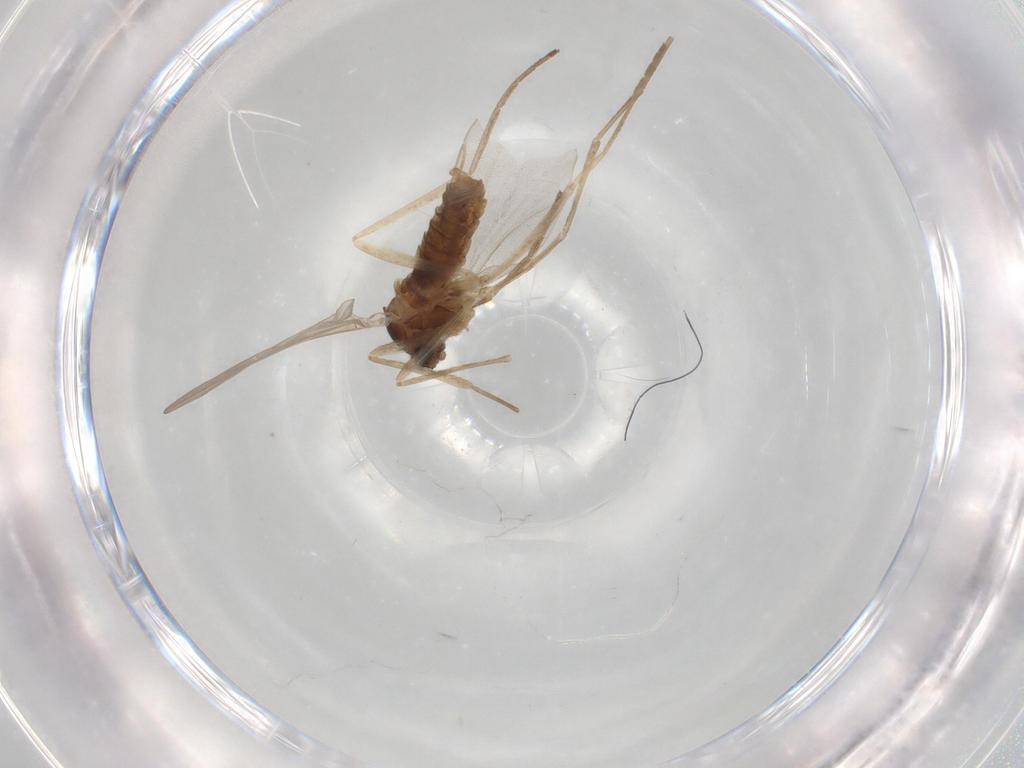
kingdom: Animalia
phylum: Arthropoda
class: Insecta
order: Diptera
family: Cecidomyiidae
